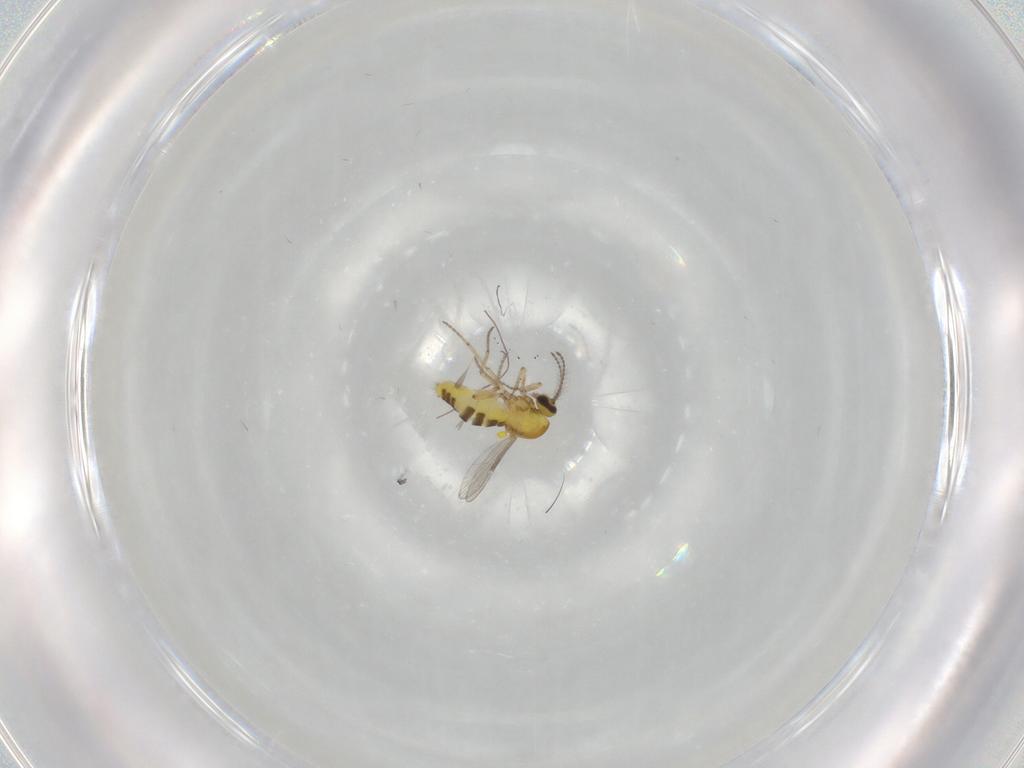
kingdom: Animalia
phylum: Arthropoda
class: Insecta
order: Diptera
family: Ceratopogonidae
